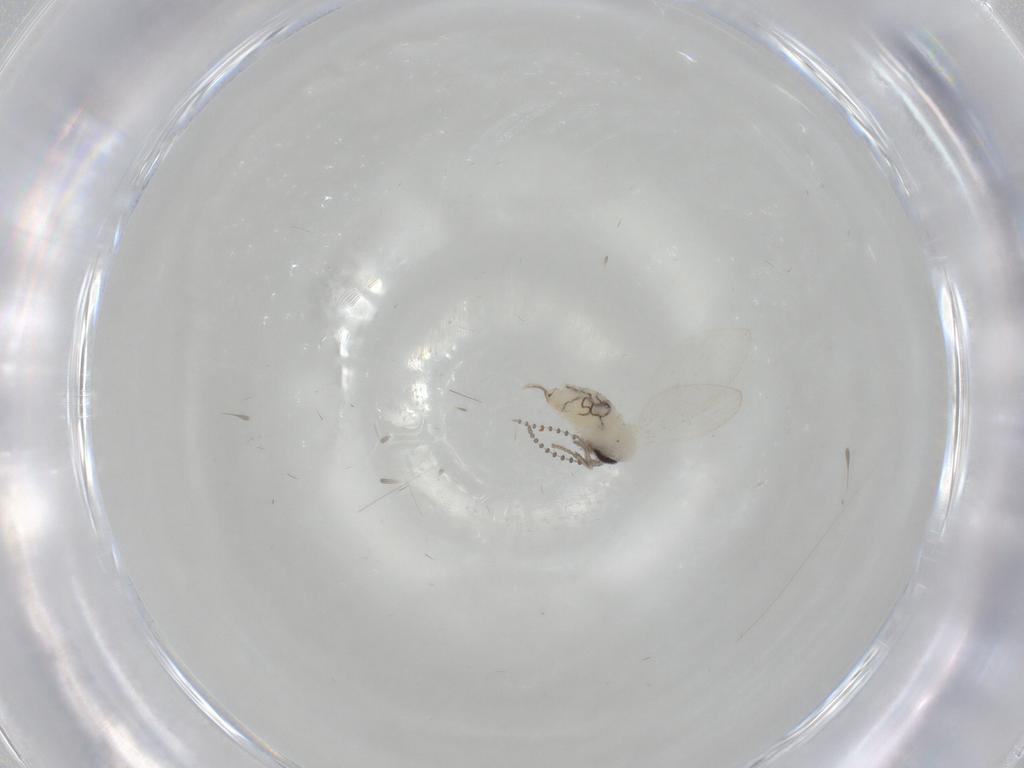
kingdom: Animalia
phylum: Arthropoda
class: Insecta
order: Diptera
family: Psychodidae
